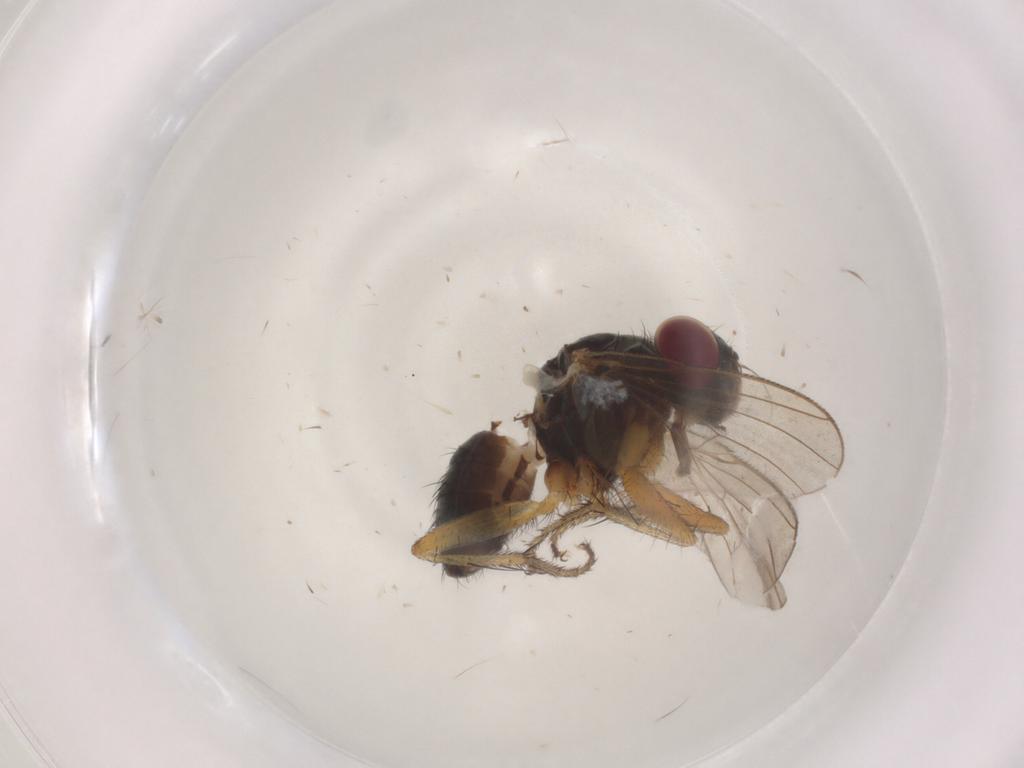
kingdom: Animalia
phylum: Arthropoda
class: Insecta
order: Diptera
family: Muscidae
